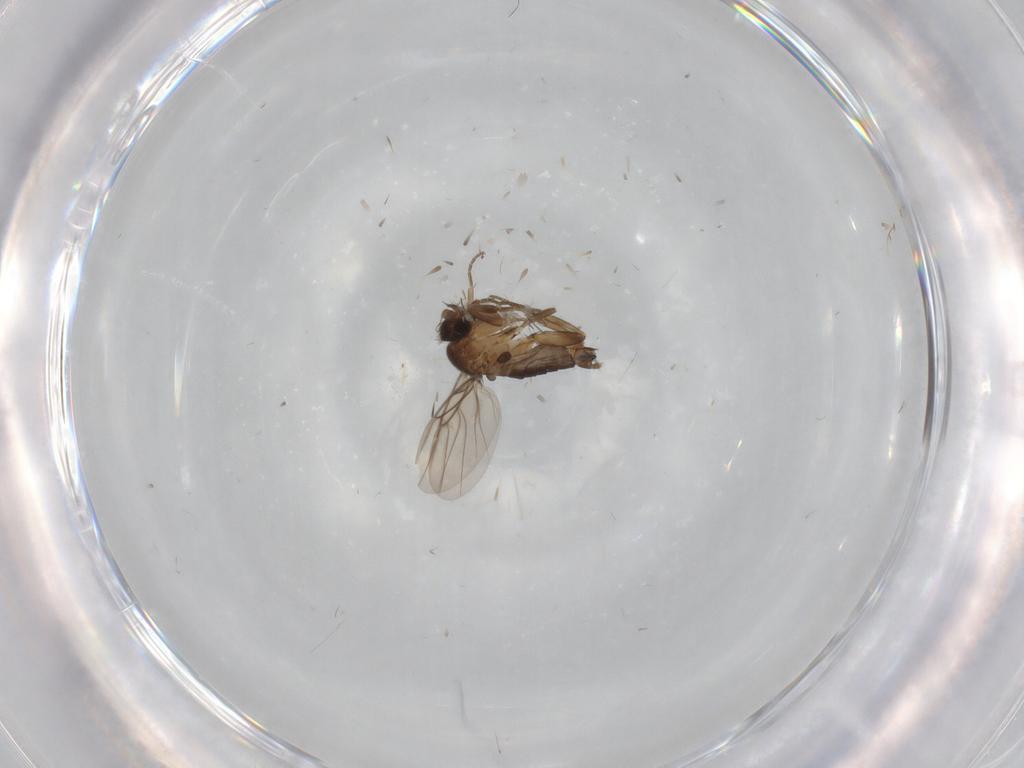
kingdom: Animalia
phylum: Arthropoda
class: Insecta
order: Diptera
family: Phoridae
